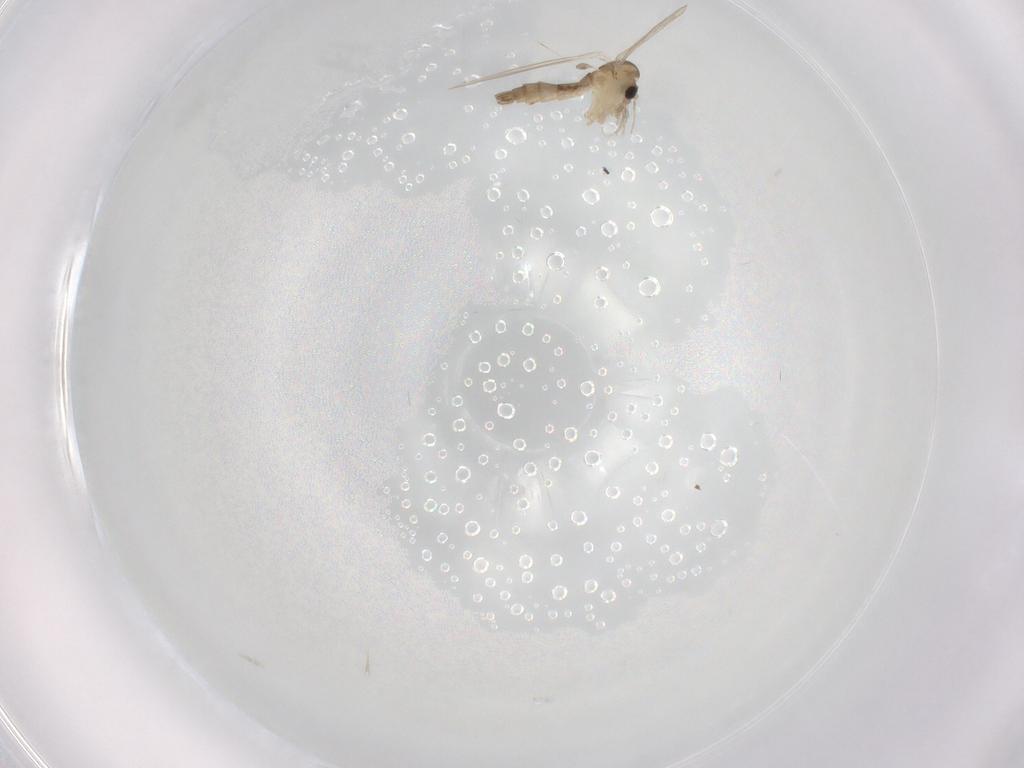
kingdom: Animalia
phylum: Arthropoda
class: Insecta
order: Diptera
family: Psychodidae
